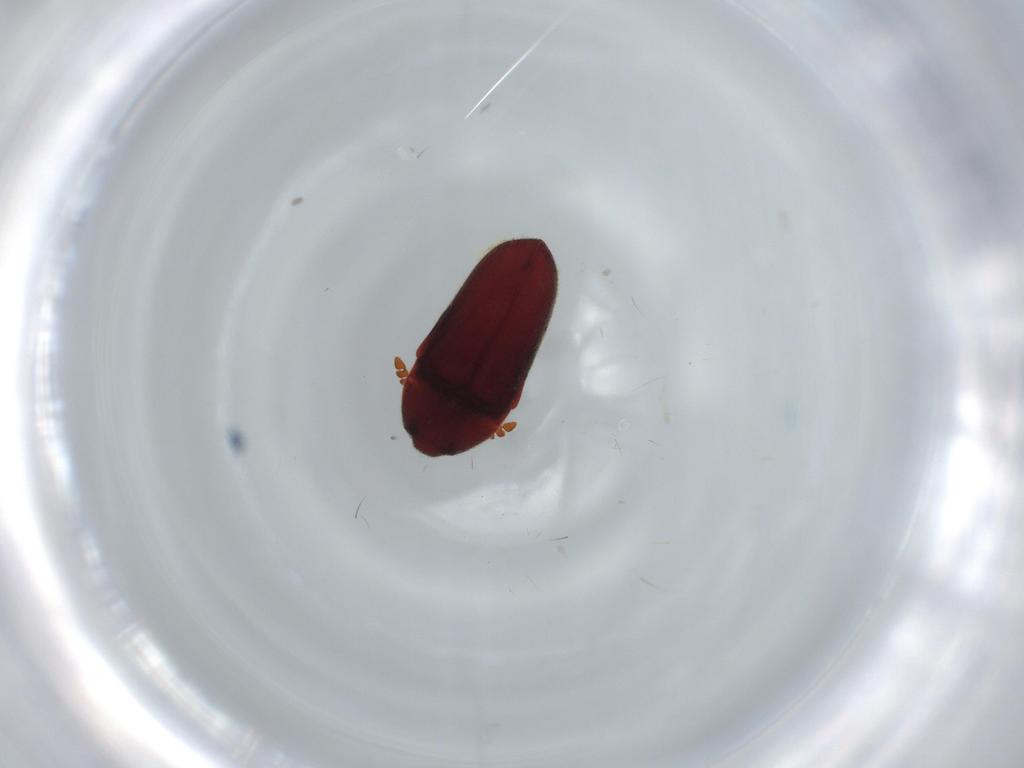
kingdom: Animalia
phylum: Arthropoda
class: Insecta
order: Coleoptera
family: Throscidae
